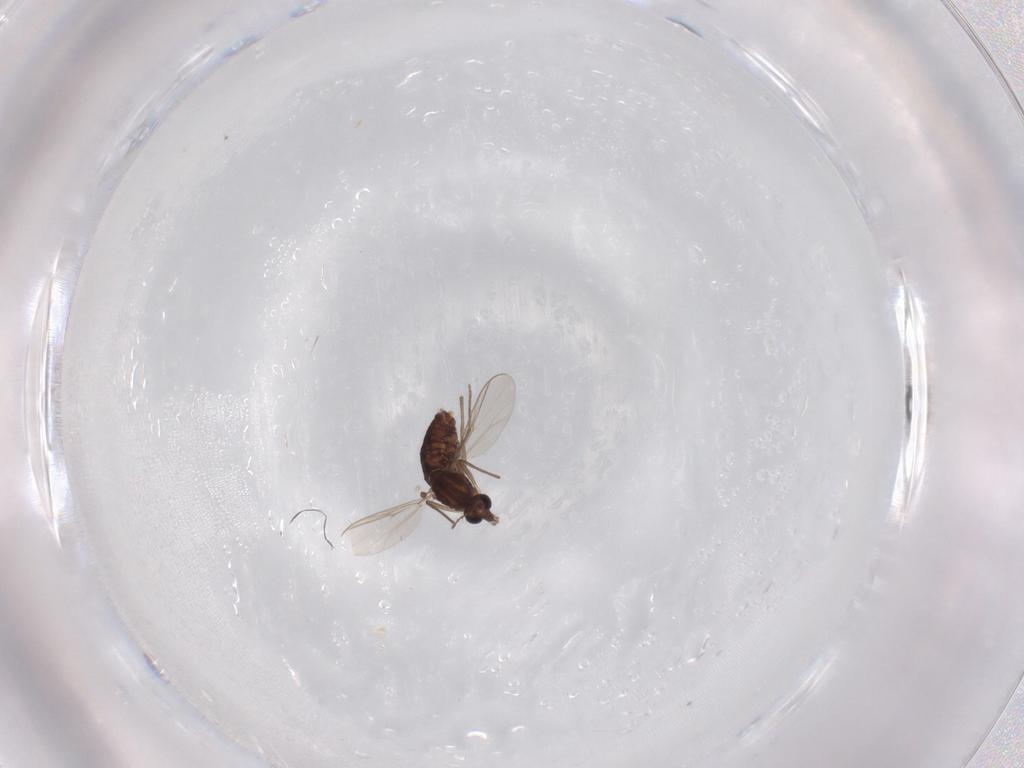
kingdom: Animalia
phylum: Arthropoda
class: Insecta
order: Diptera
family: Chironomidae
